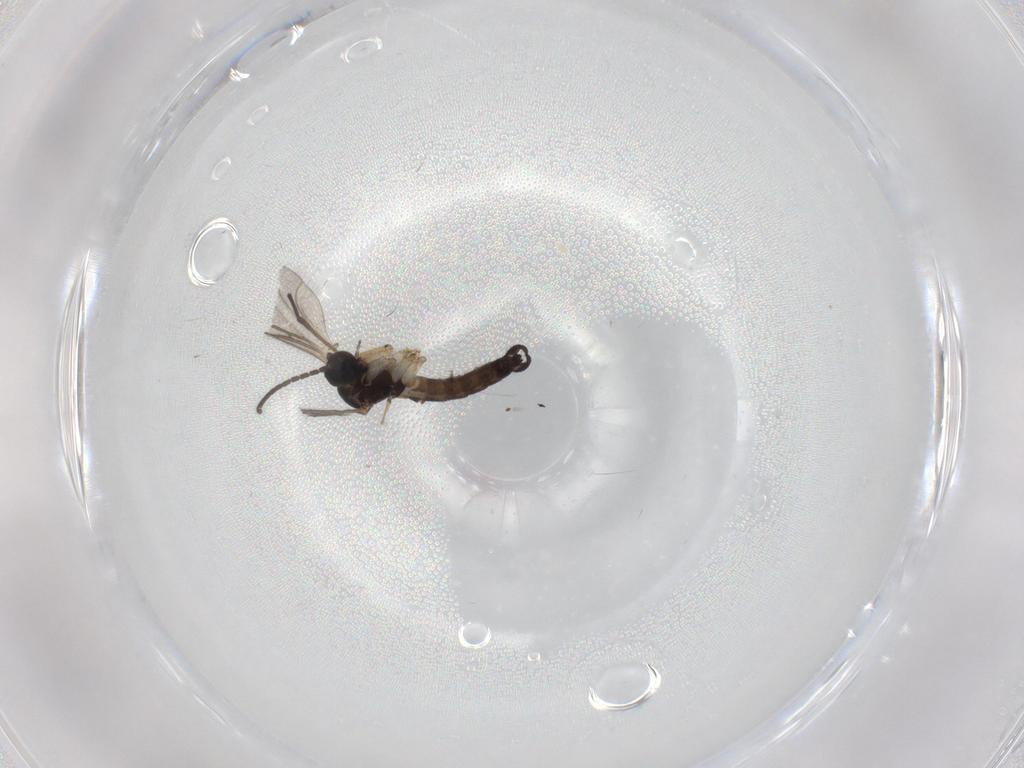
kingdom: Animalia
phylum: Arthropoda
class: Insecta
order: Diptera
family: Sciaridae
